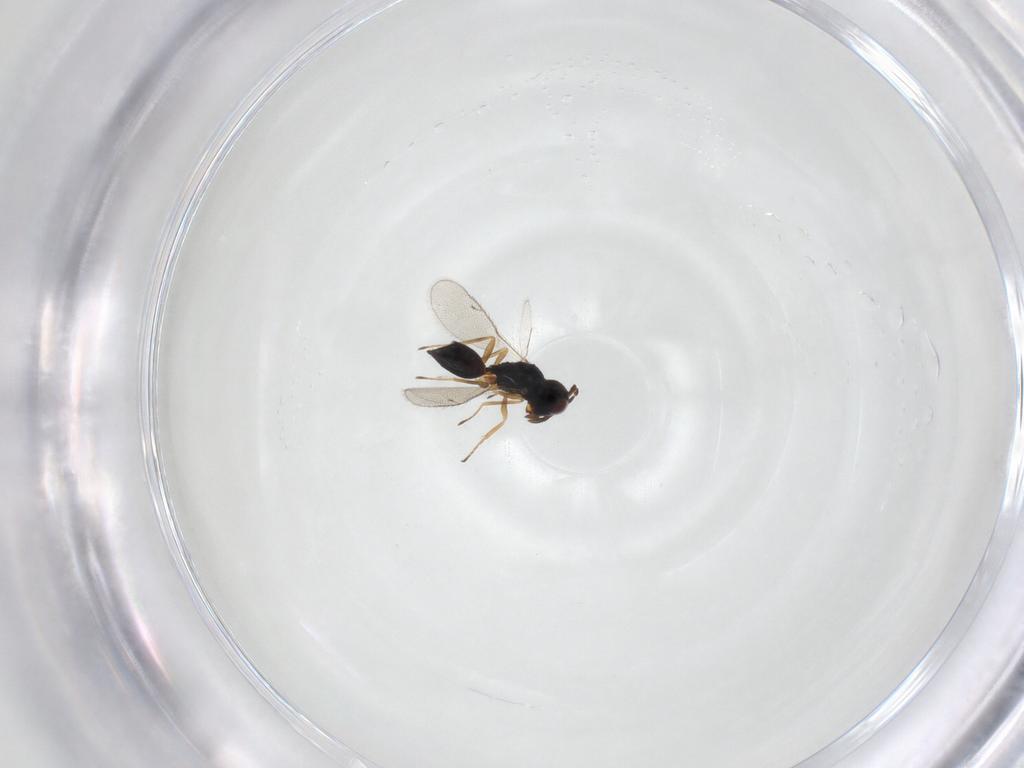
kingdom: Animalia
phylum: Arthropoda
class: Insecta
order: Hymenoptera
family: Pteromalidae
